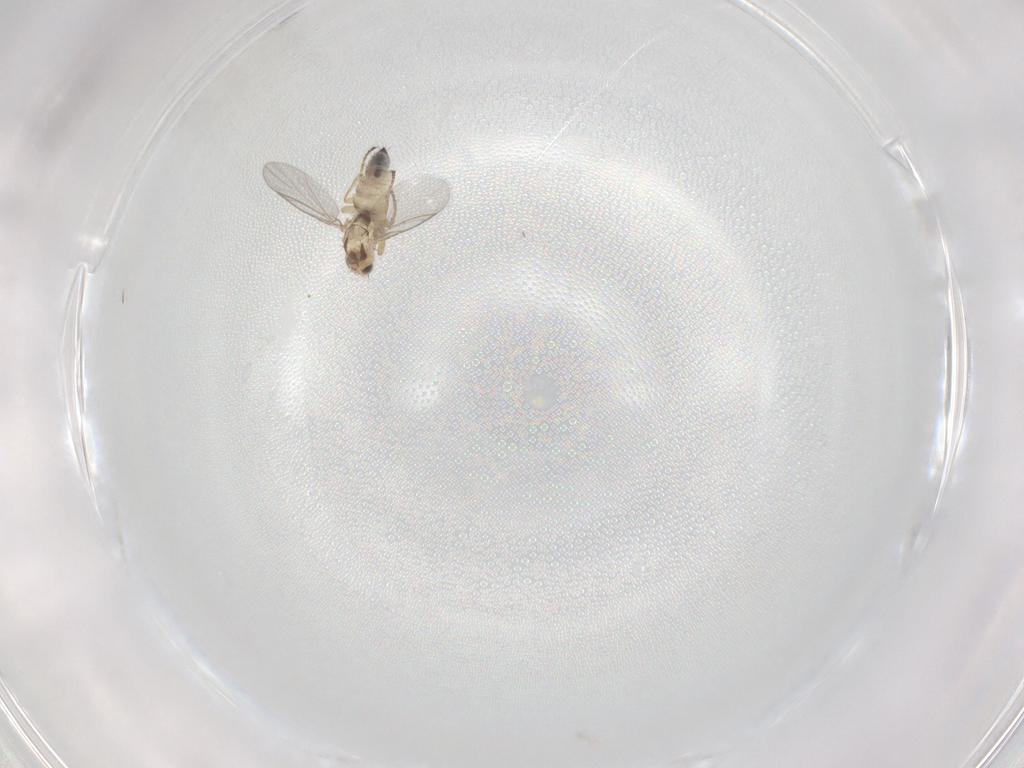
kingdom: Animalia
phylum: Arthropoda
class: Insecta
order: Diptera
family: Agromyzidae
